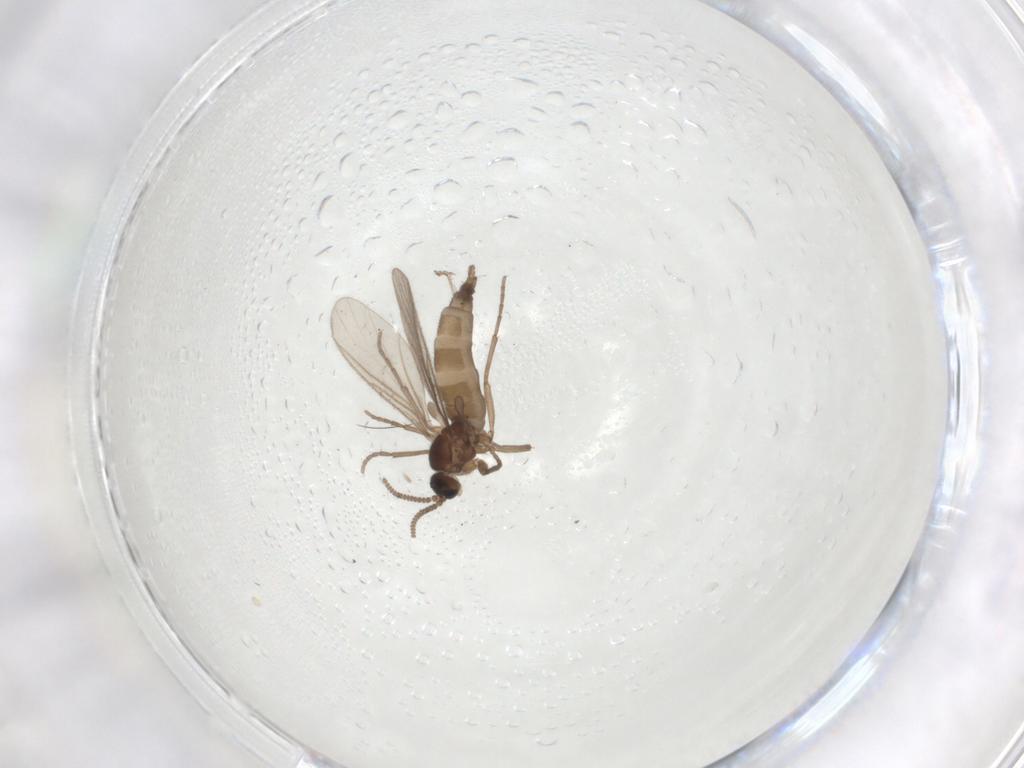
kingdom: Animalia
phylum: Arthropoda
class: Insecta
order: Diptera
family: Sciaridae
